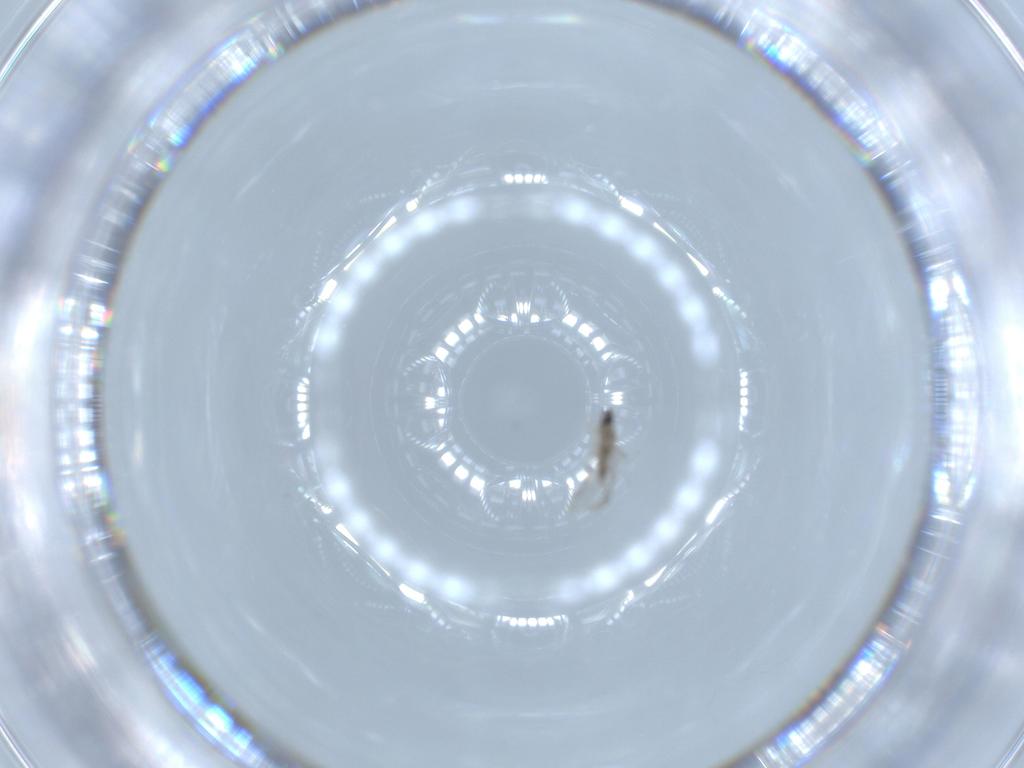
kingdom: Animalia
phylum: Arthropoda
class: Insecta
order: Diptera
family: Cecidomyiidae
